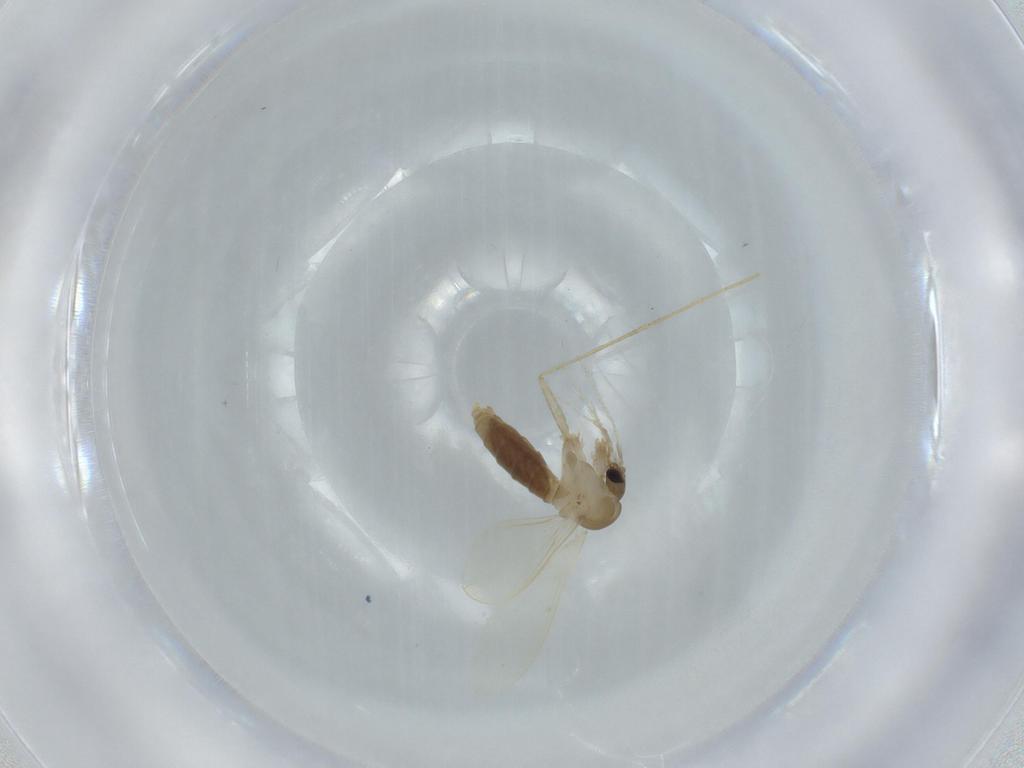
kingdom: Animalia
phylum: Arthropoda
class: Insecta
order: Diptera
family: Psychodidae
